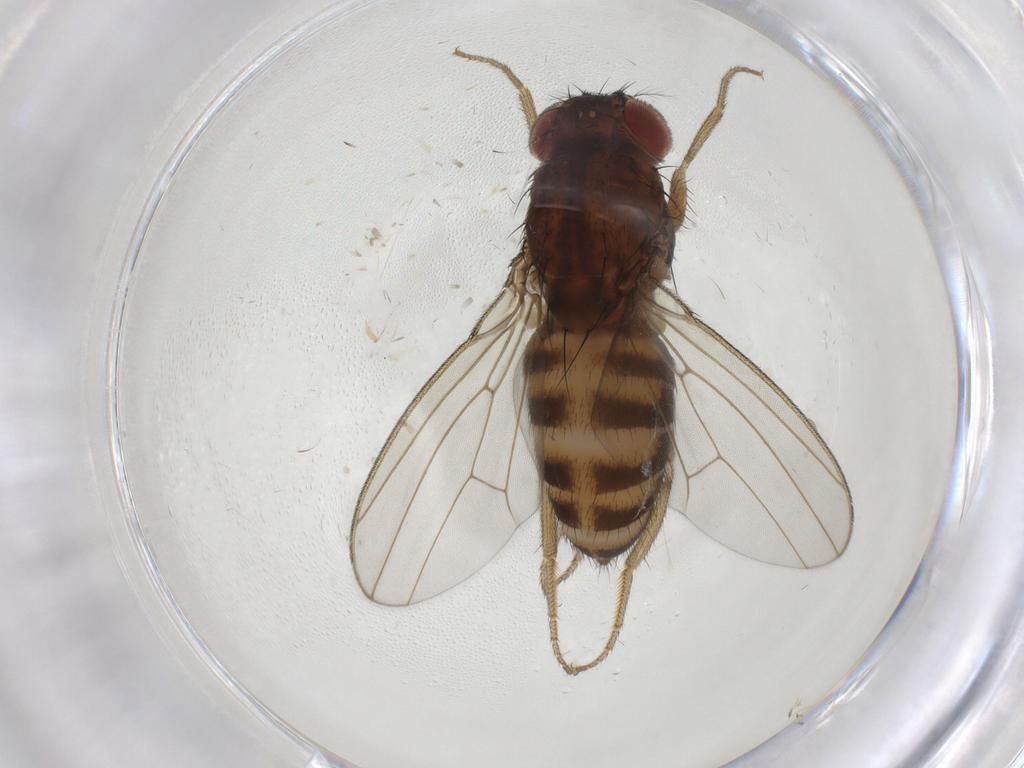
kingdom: Animalia
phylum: Arthropoda
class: Insecta
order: Diptera
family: Drosophilidae
